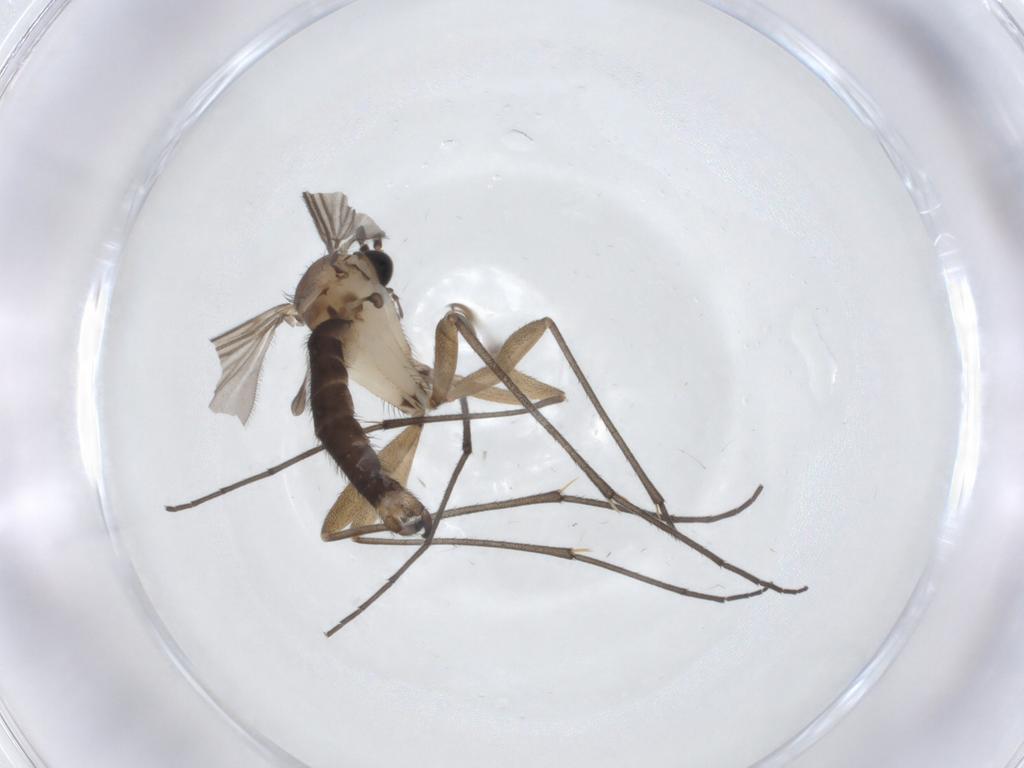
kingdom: Animalia
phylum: Arthropoda
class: Insecta
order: Diptera
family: Sciaridae
